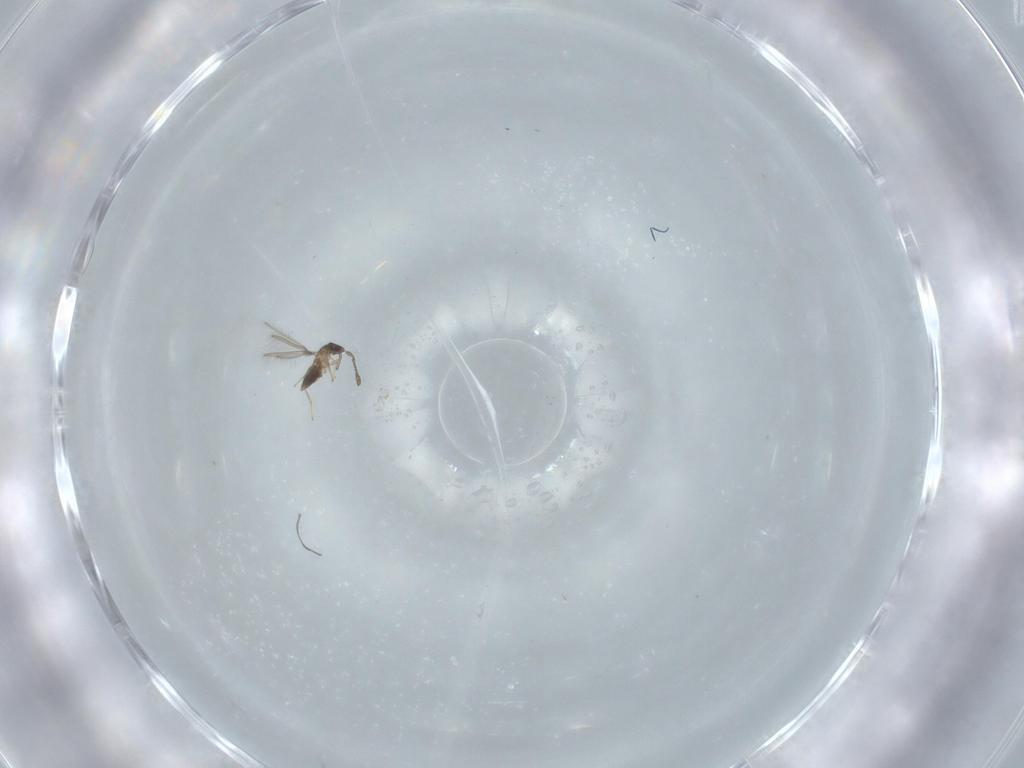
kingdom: Animalia
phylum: Arthropoda
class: Insecta
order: Hymenoptera
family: Mymaridae
